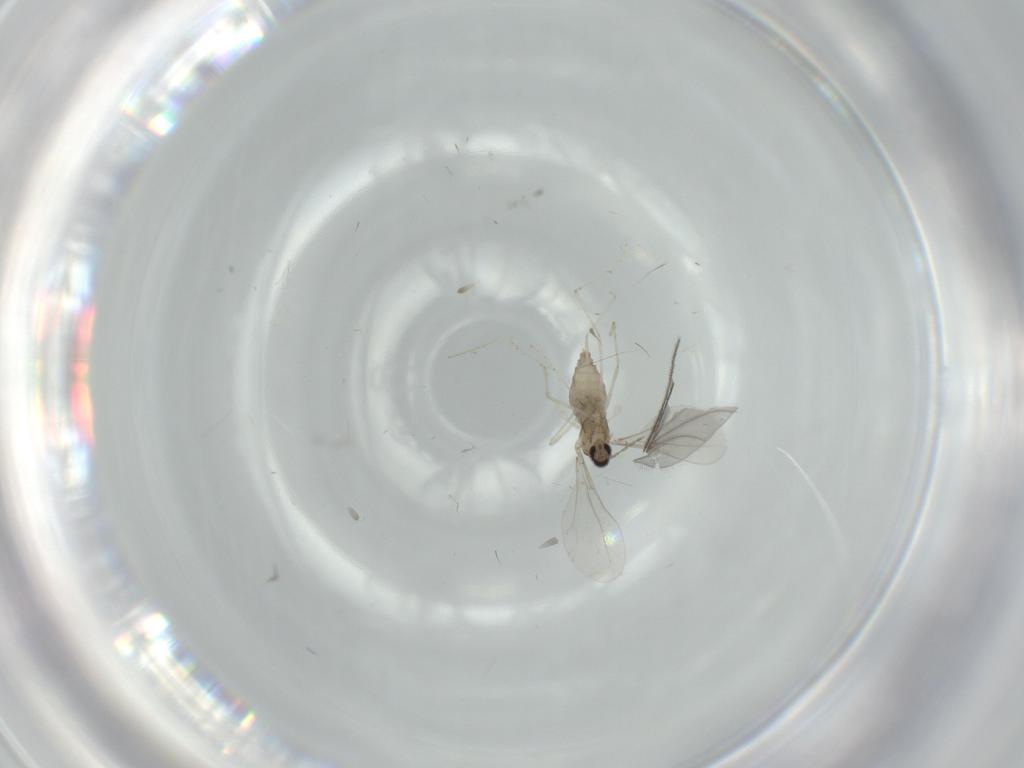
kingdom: Animalia
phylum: Arthropoda
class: Insecta
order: Diptera
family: Cecidomyiidae
